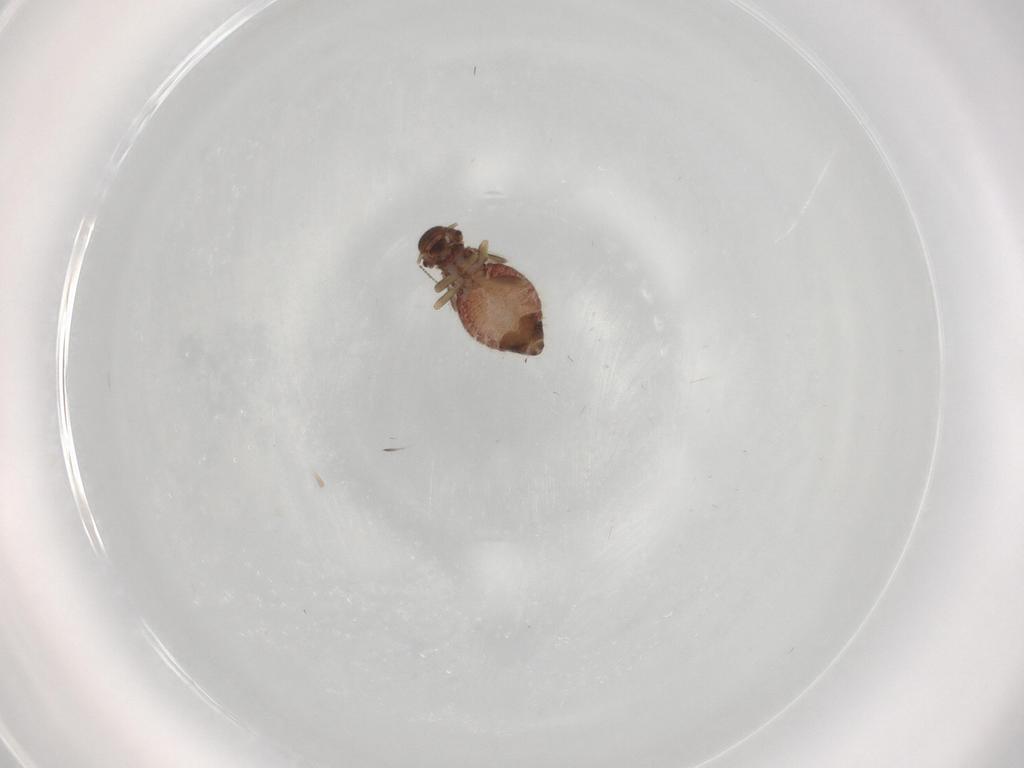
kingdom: Animalia
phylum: Arthropoda
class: Insecta
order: Psocodea
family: Archipsocidae
